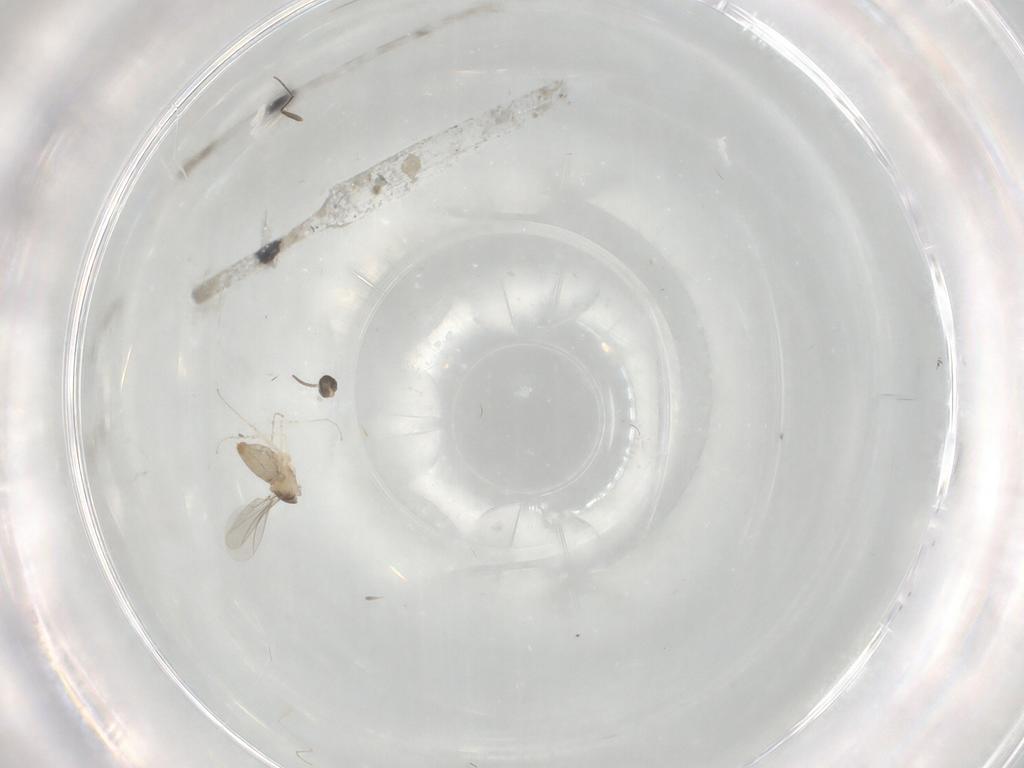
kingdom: Animalia
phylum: Arthropoda
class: Insecta
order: Diptera
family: Cecidomyiidae
